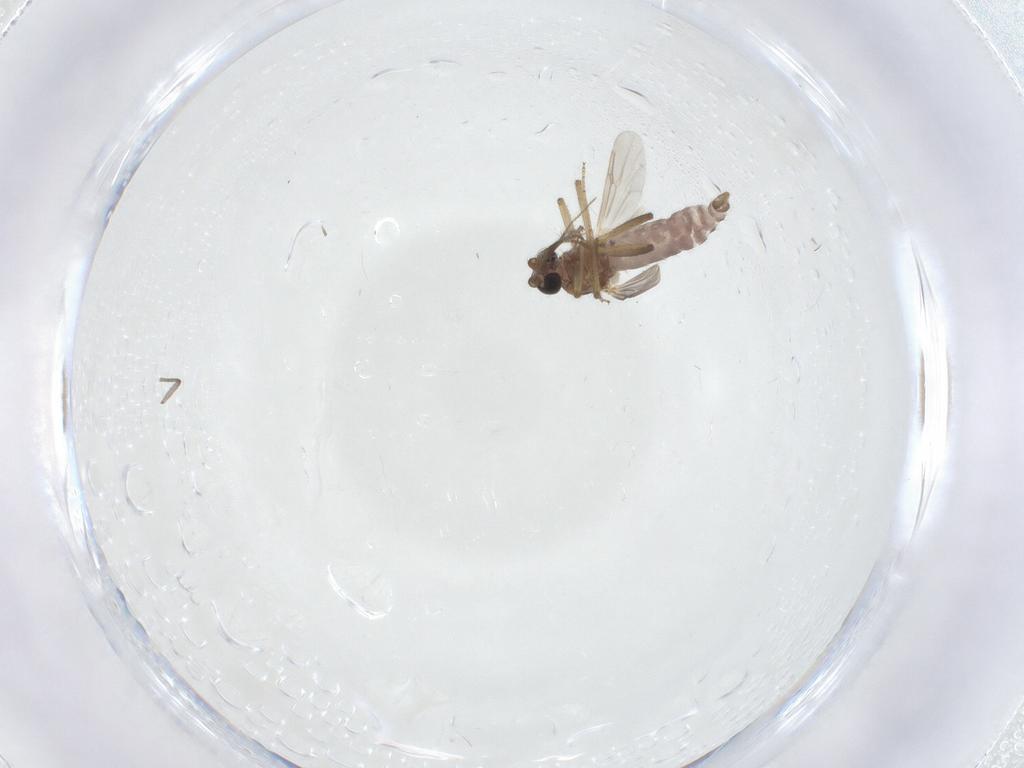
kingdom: Animalia
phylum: Arthropoda
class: Insecta
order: Diptera
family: Ceratopogonidae
